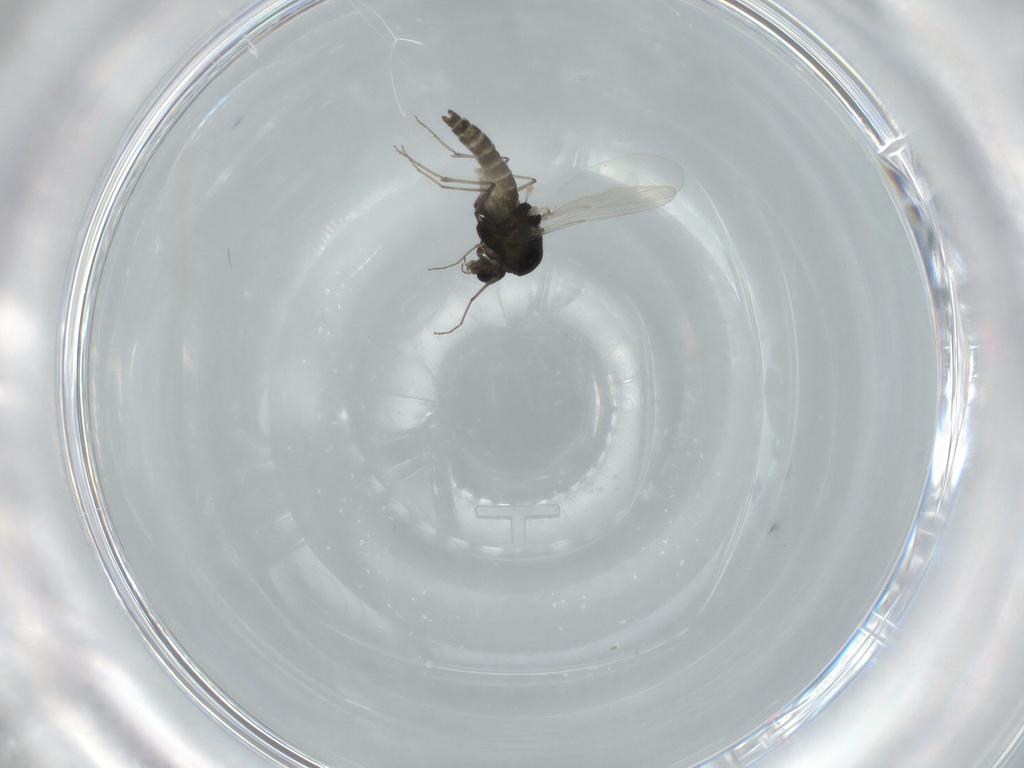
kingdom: Animalia
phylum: Arthropoda
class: Insecta
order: Diptera
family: Chironomidae
